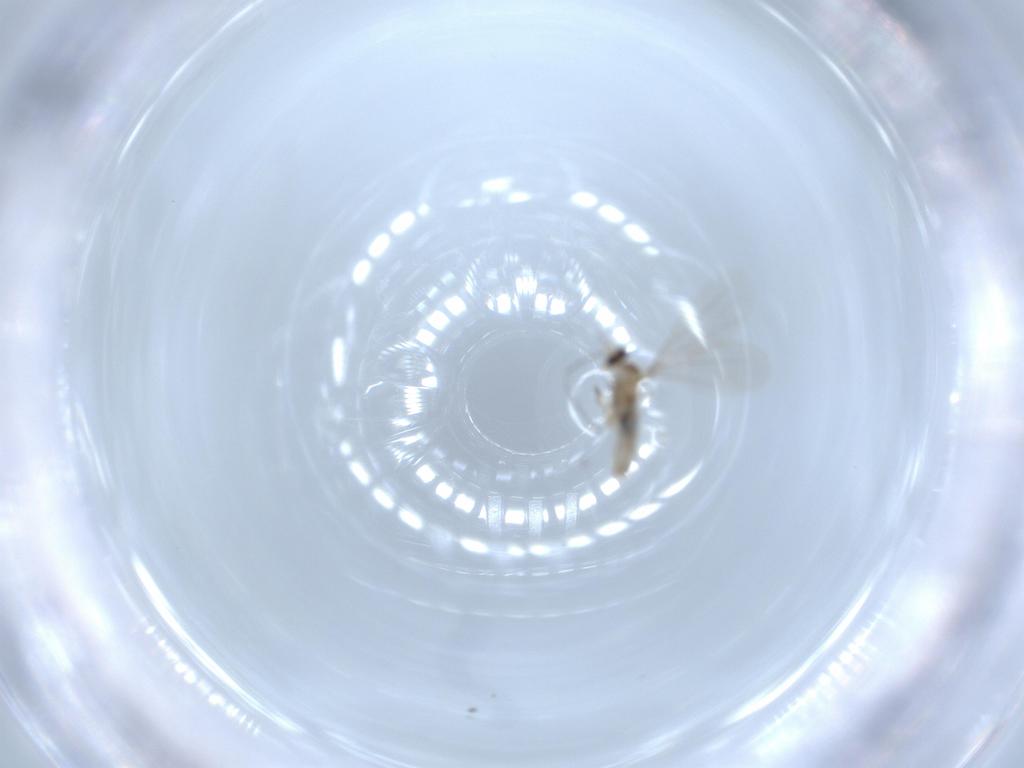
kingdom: Animalia
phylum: Arthropoda
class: Insecta
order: Diptera
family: Cecidomyiidae
